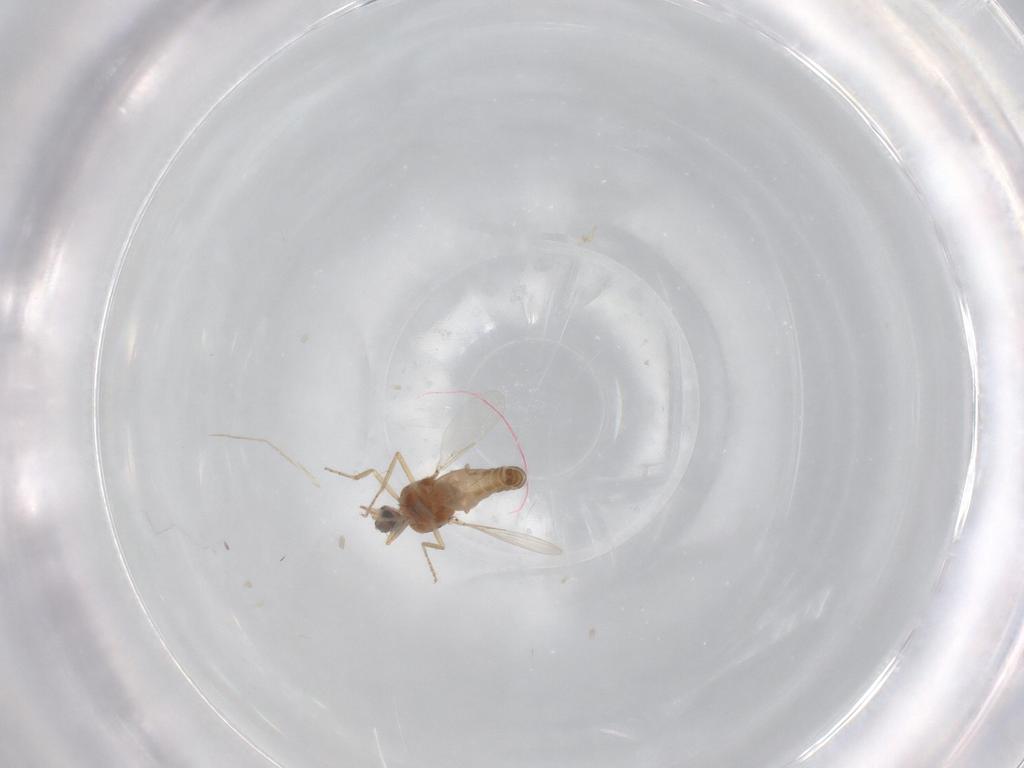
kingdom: Animalia
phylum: Arthropoda
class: Insecta
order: Diptera
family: Ceratopogonidae
